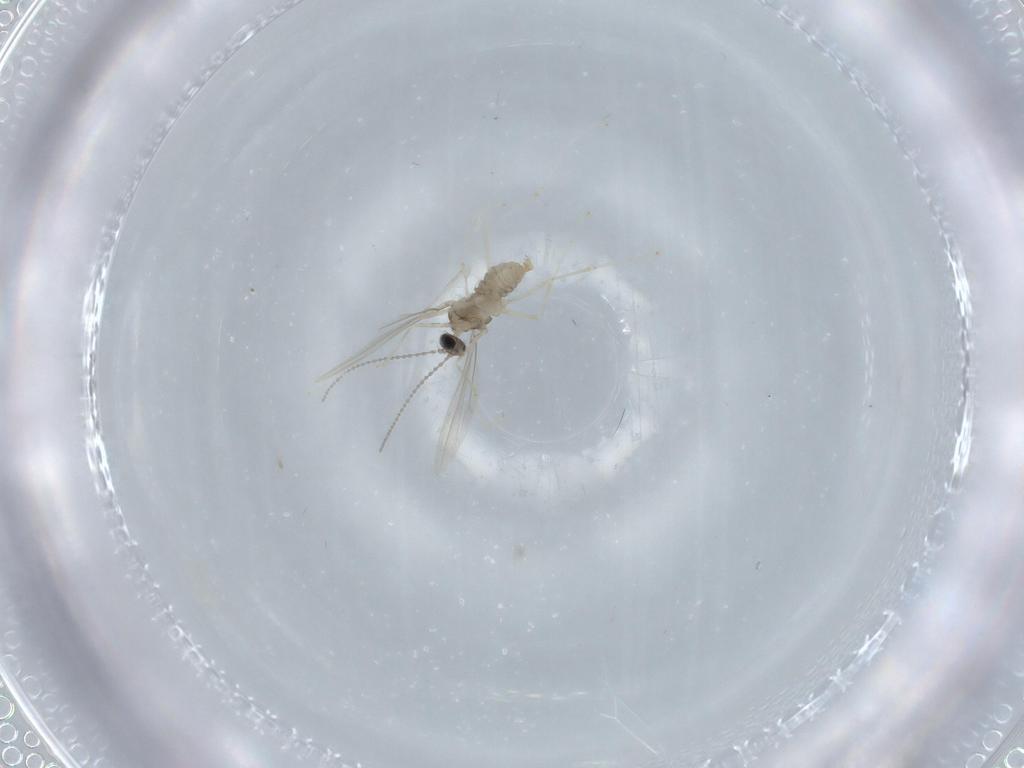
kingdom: Animalia
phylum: Arthropoda
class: Insecta
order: Diptera
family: Cecidomyiidae
